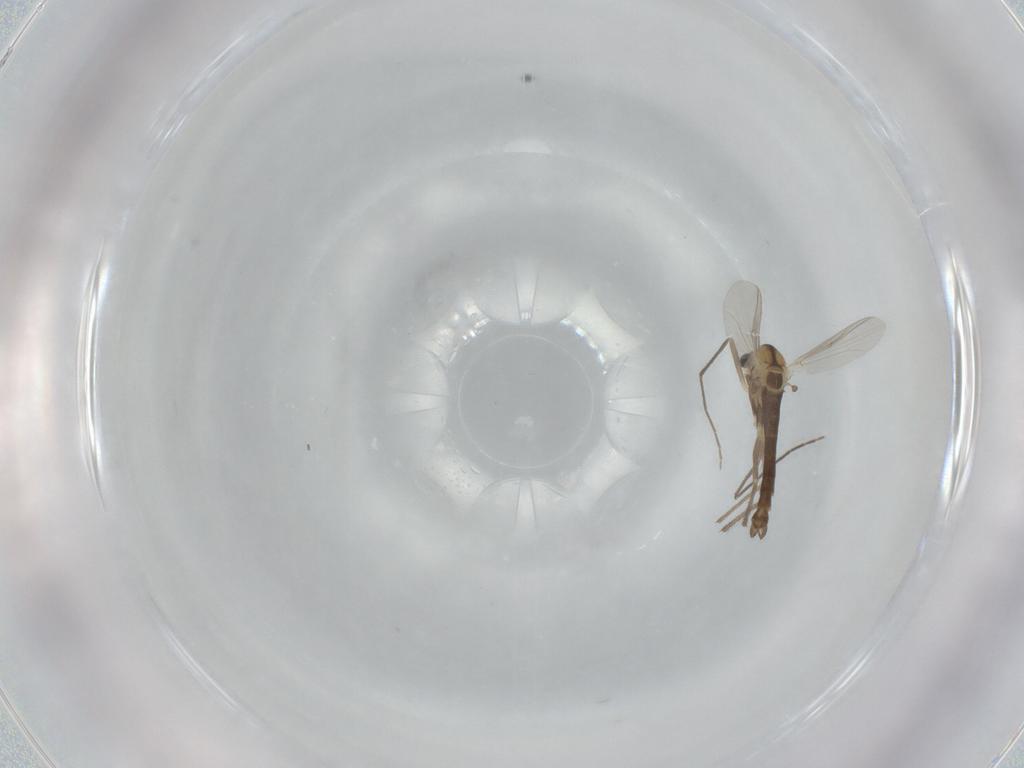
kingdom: Animalia
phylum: Arthropoda
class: Insecta
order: Diptera
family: Chironomidae
